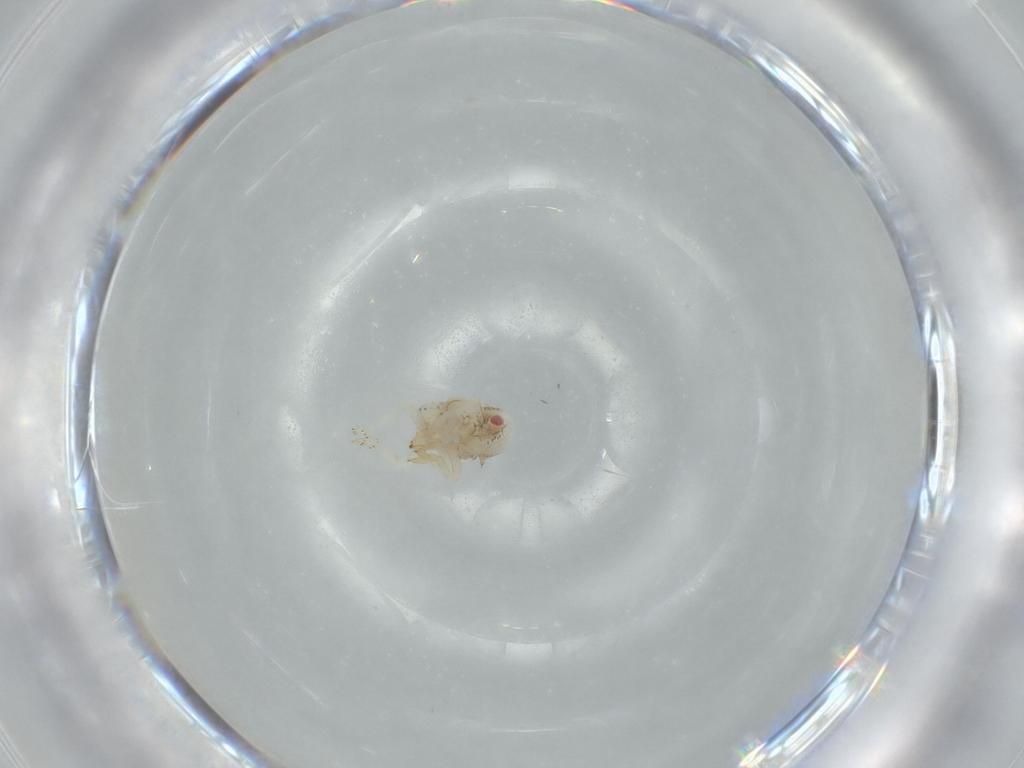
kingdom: Animalia
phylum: Arthropoda
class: Insecta
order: Hemiptera
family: Acanaloniidae
